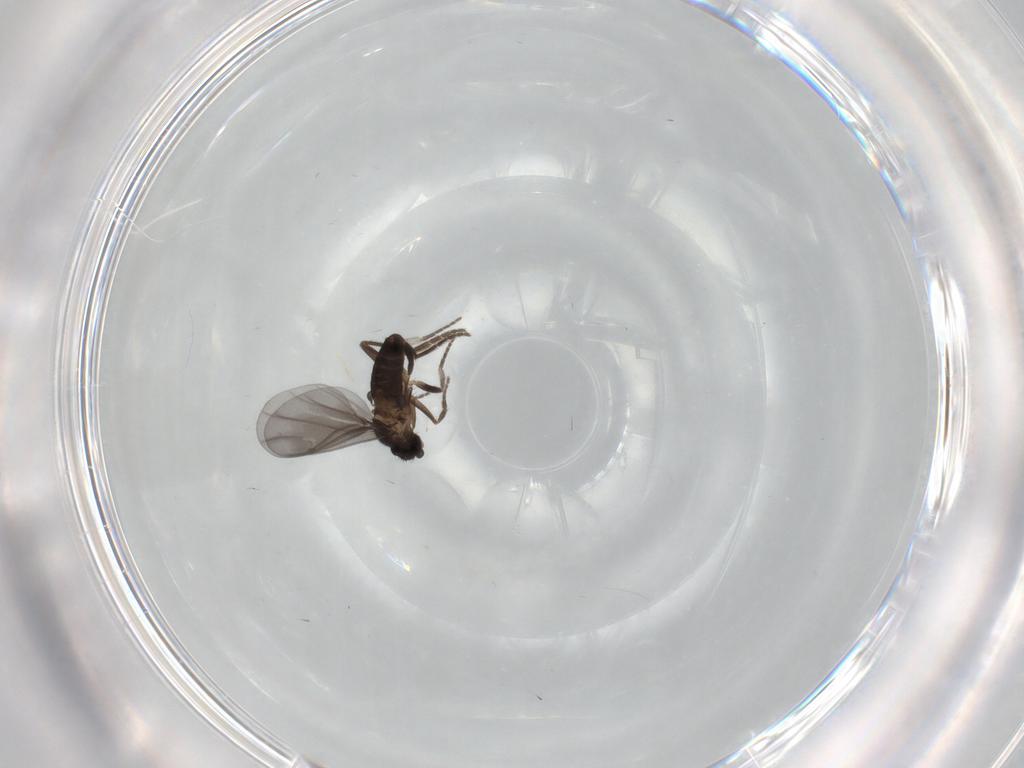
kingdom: Animalia
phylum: Arthropoda
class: Insecta
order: Diptera
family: Phoridae
